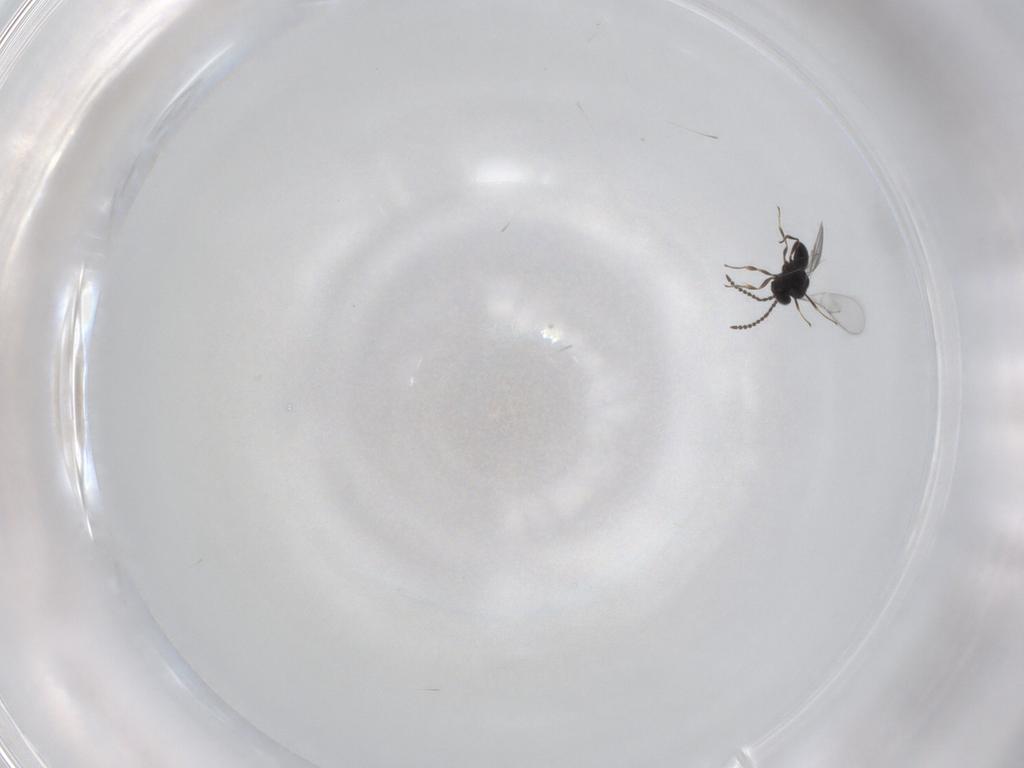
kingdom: Animalia
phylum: Arthropoda
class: Insecta
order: Hymenoptera
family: Scelionidae
